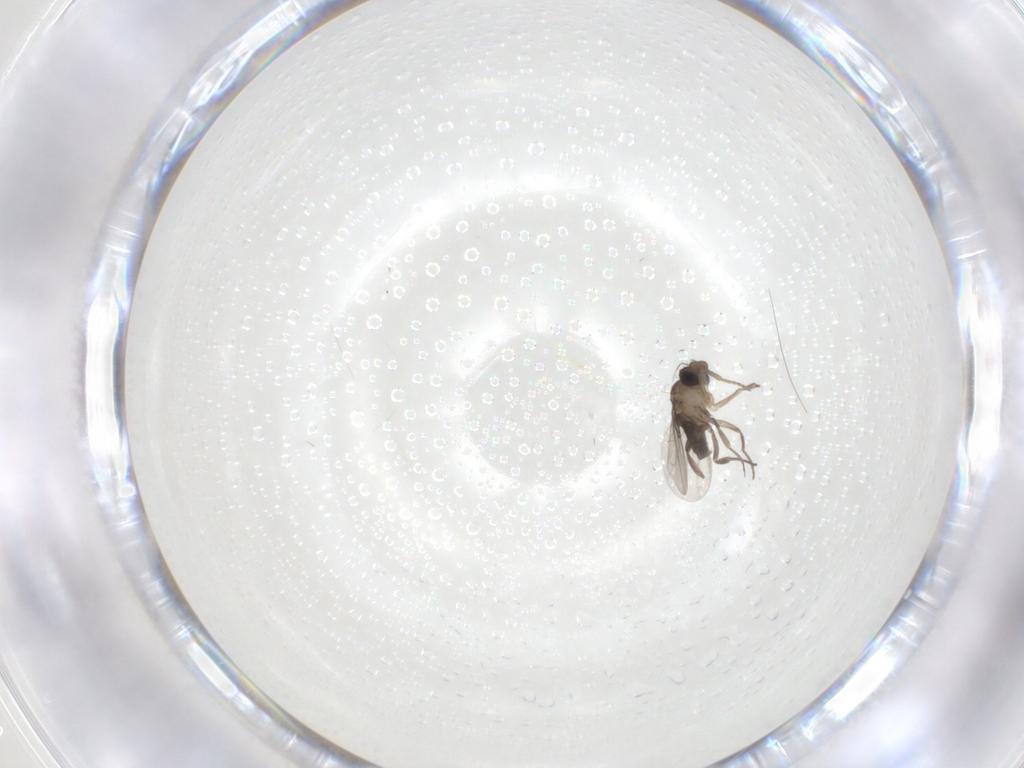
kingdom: Animalia
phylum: Arthropoda
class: Insecta
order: Diptera
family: Phoridae
